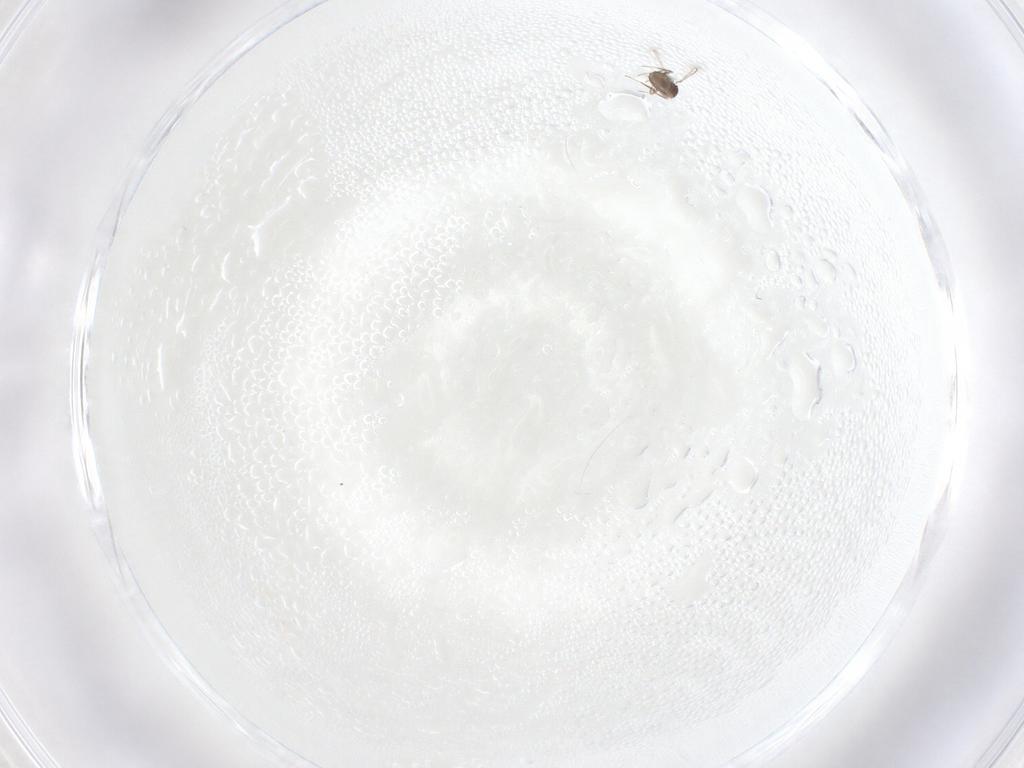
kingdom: Animalia
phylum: Arthropoda
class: Insecta
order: Hymenoptera
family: Mymaridae
